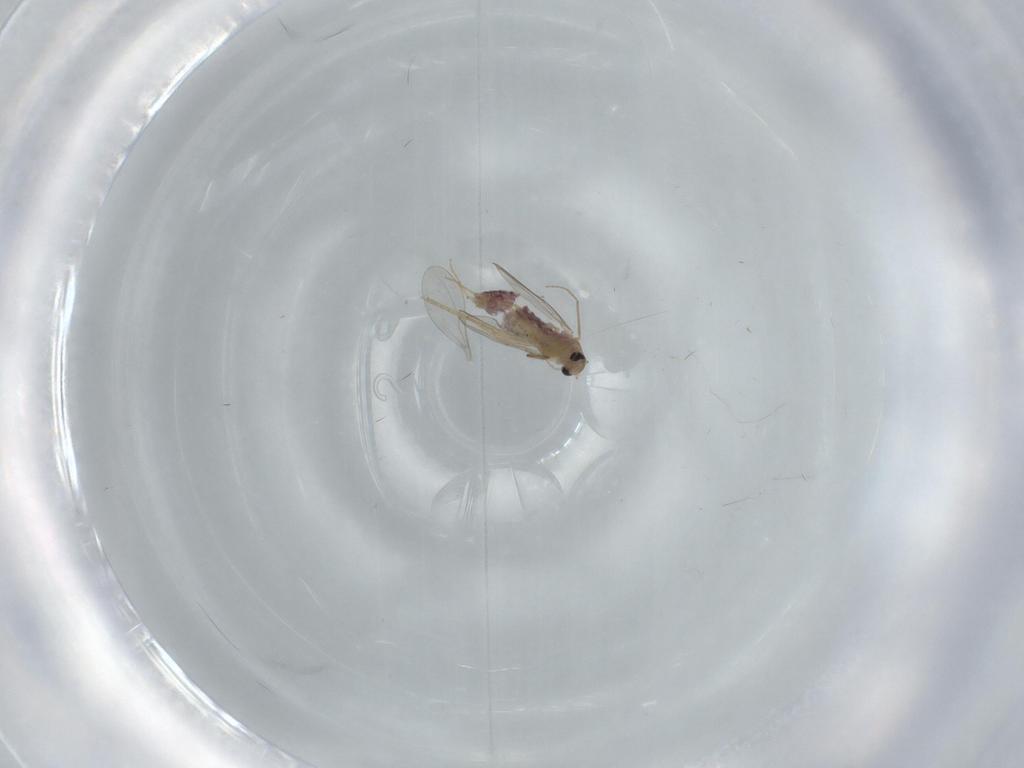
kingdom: Animalia
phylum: Arthropoda
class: Insecta
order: Diptera
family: Chironomidae
